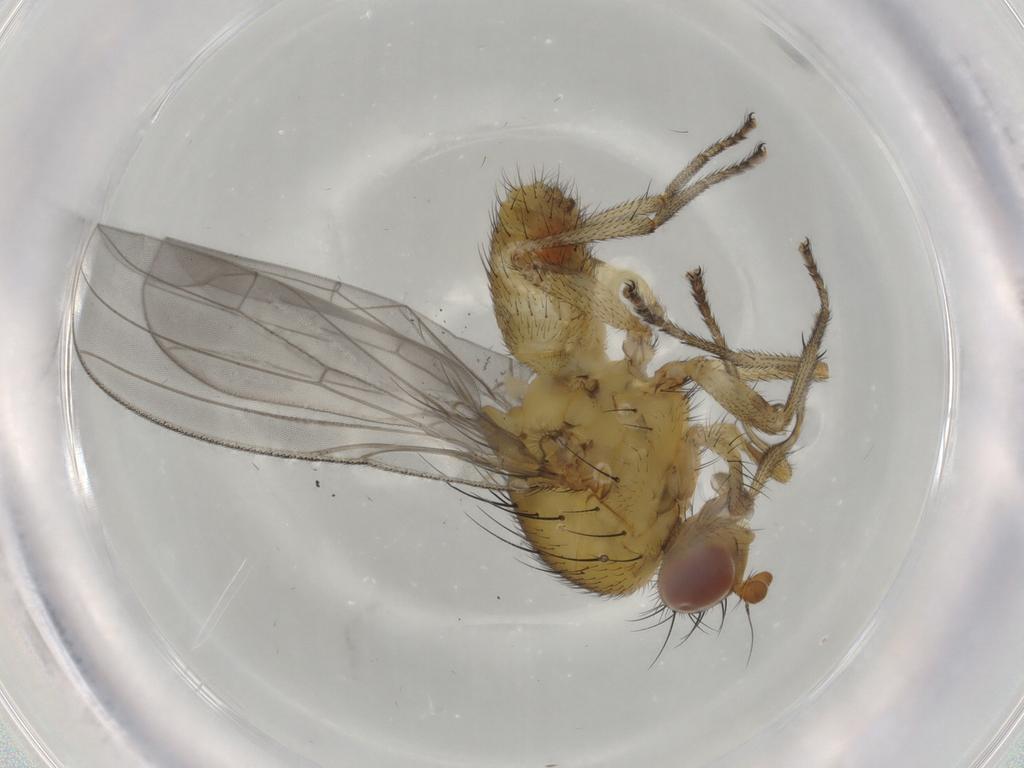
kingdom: Animalia
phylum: Arthropoda
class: Insecta
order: Diptera
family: Lauxaniidae
